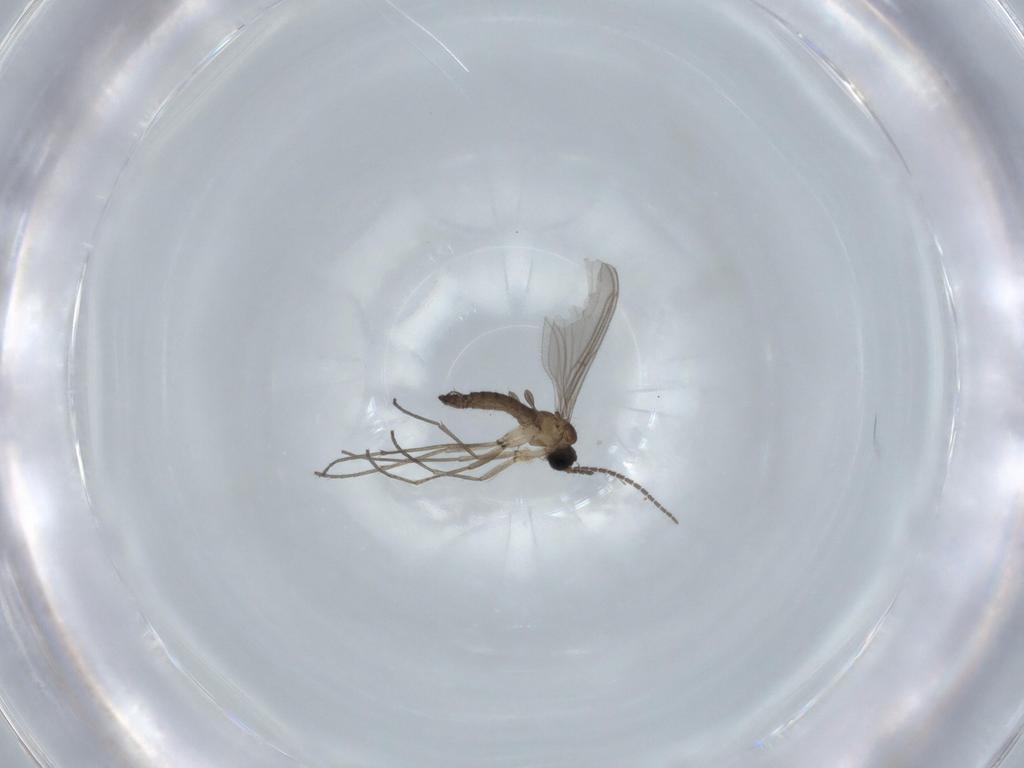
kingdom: Animalia
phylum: Arthropoda
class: Insecta
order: Diptera
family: Sciaridae
